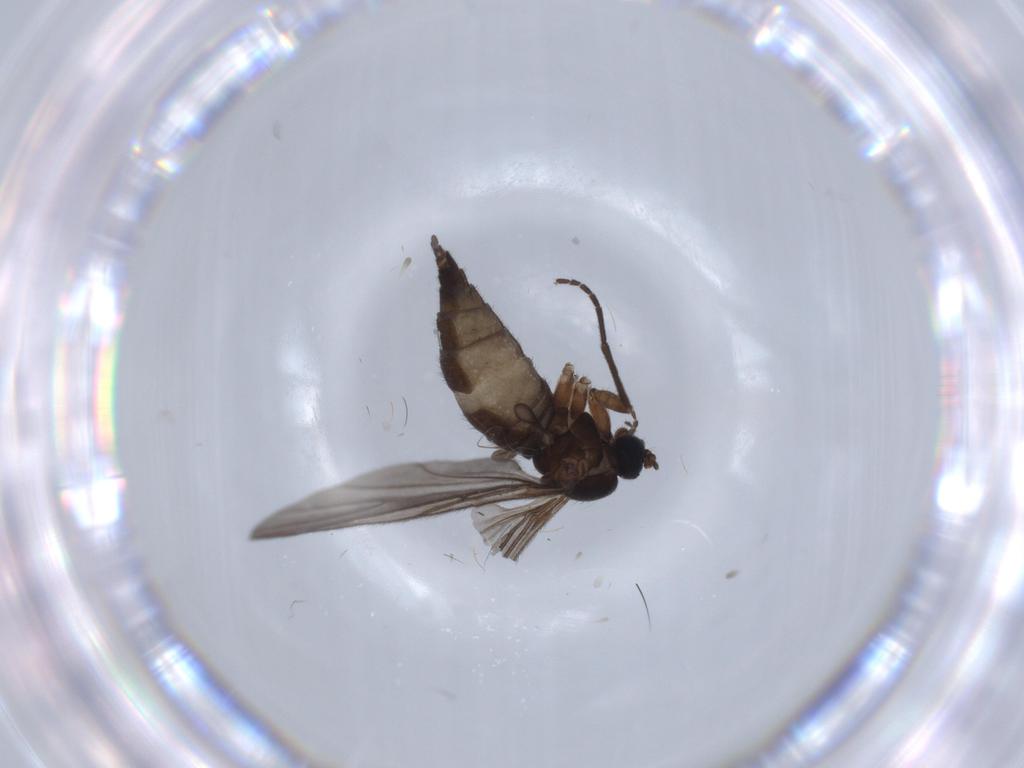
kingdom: Animalia
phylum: Arthropoda
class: Insecta
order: Diptera
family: Sciaridae
